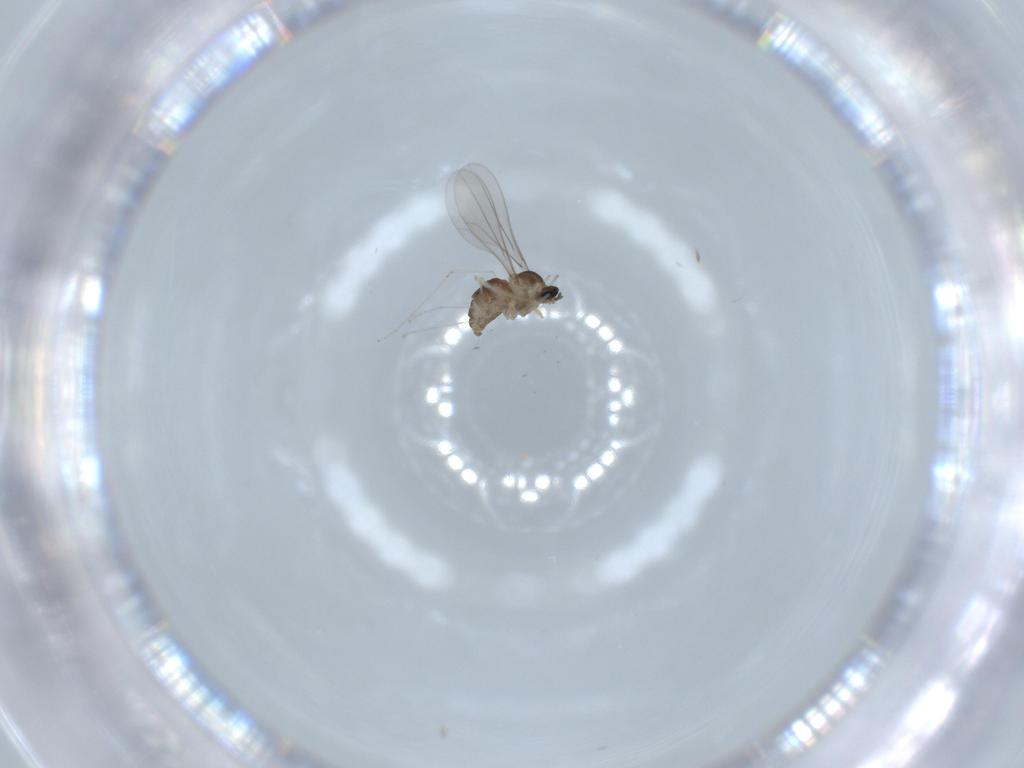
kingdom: Animalia
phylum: Arthropoda
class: Insecta
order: Diptera
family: Cecidomyiidae
